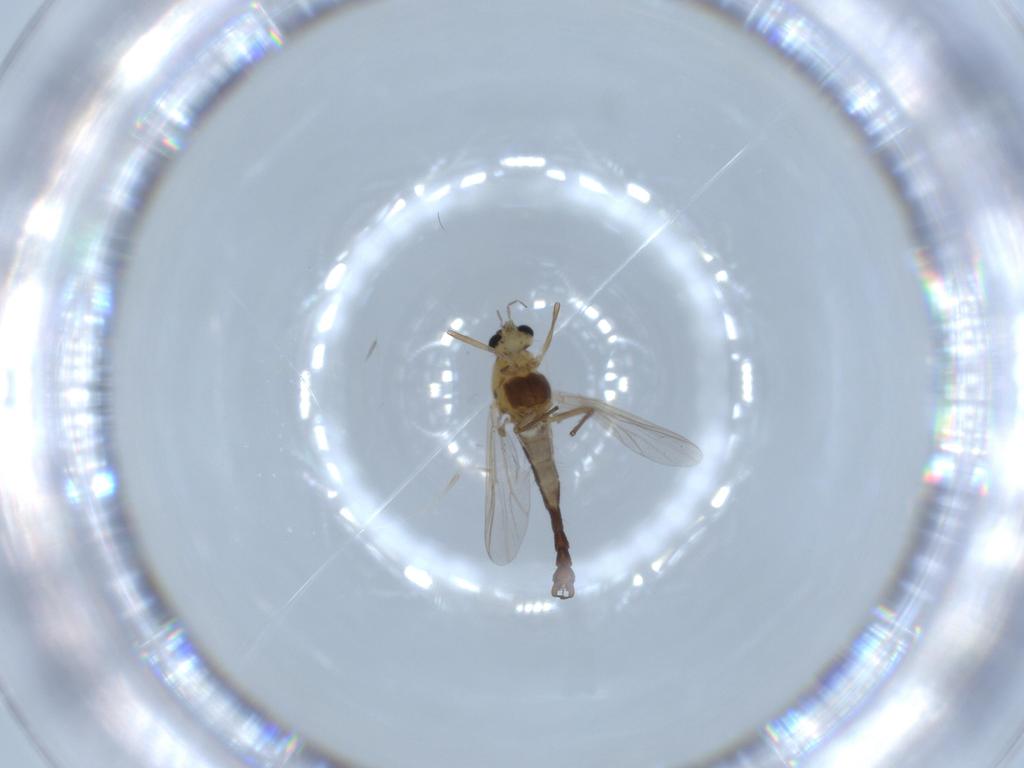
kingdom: Animalia
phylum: Arthropoda
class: Insecta
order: Diptera
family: Chironomidae
